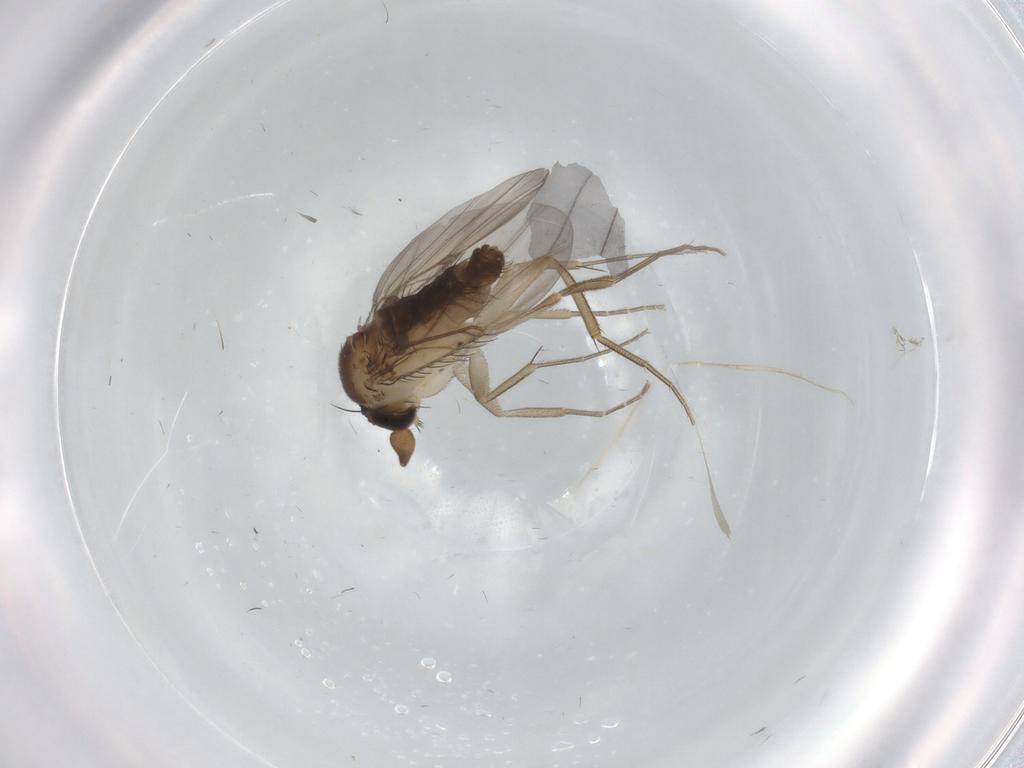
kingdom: Animalia
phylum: Arthropoda
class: Insecta
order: Diptera
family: Phoridae
